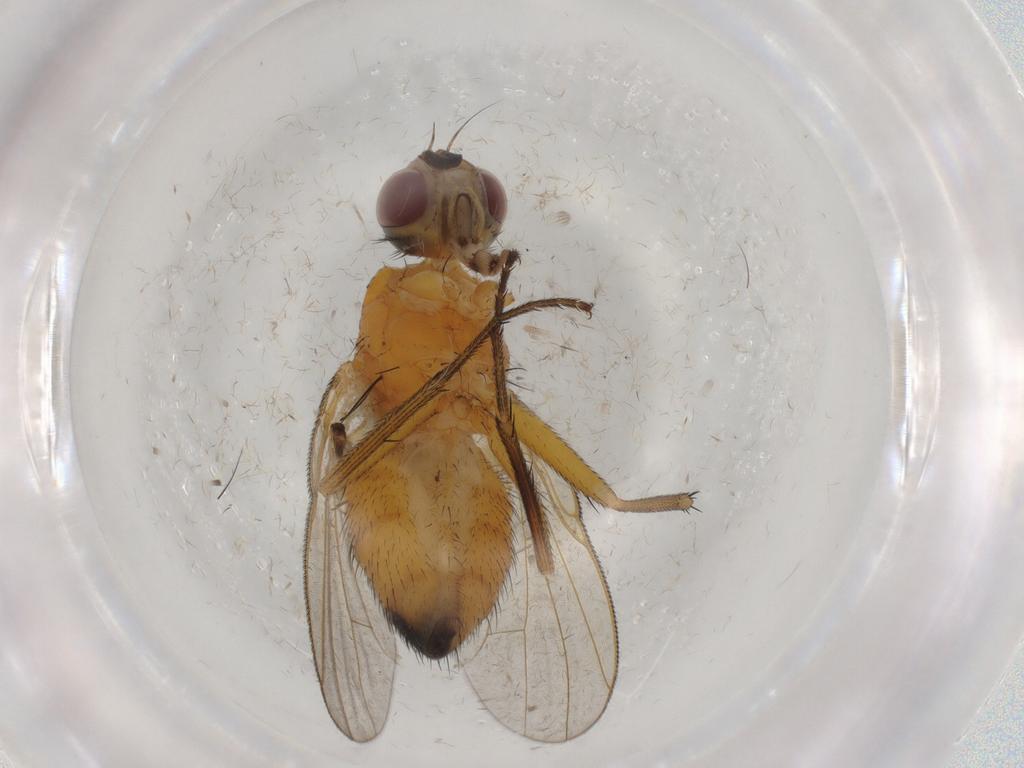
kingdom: Animalia
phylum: Arthropoda
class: Insecta
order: Diptera
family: Muscidae
